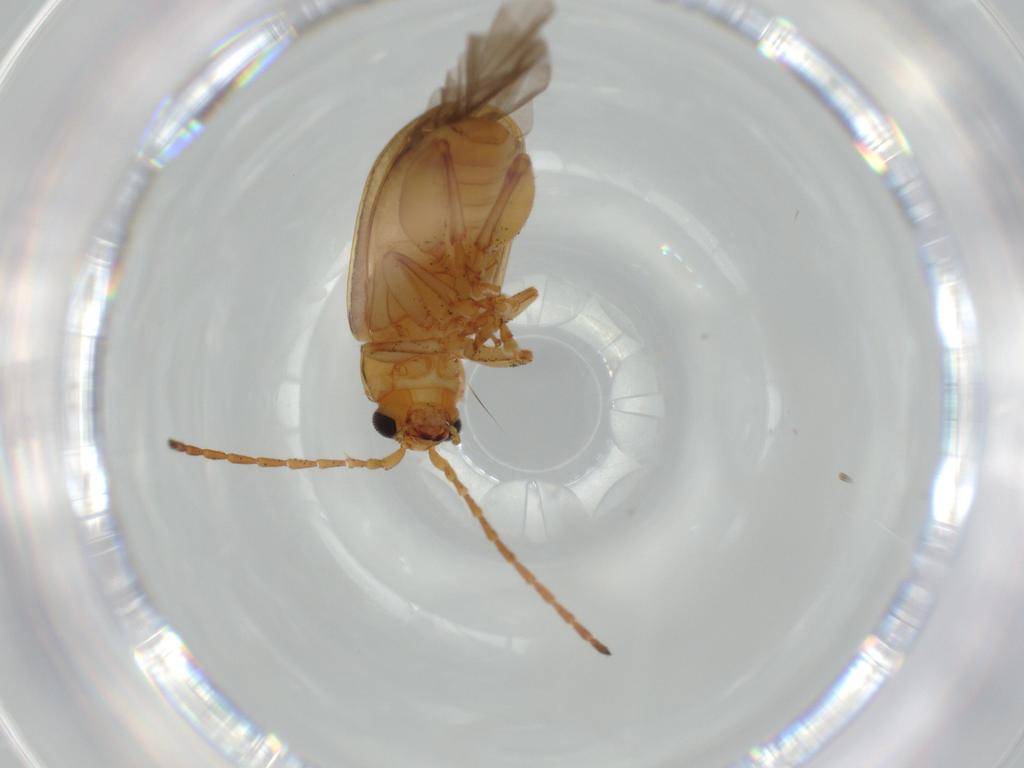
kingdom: Animalia
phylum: Arthropoda
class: Insecta
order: Coleoptera
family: Chrysomelidae
